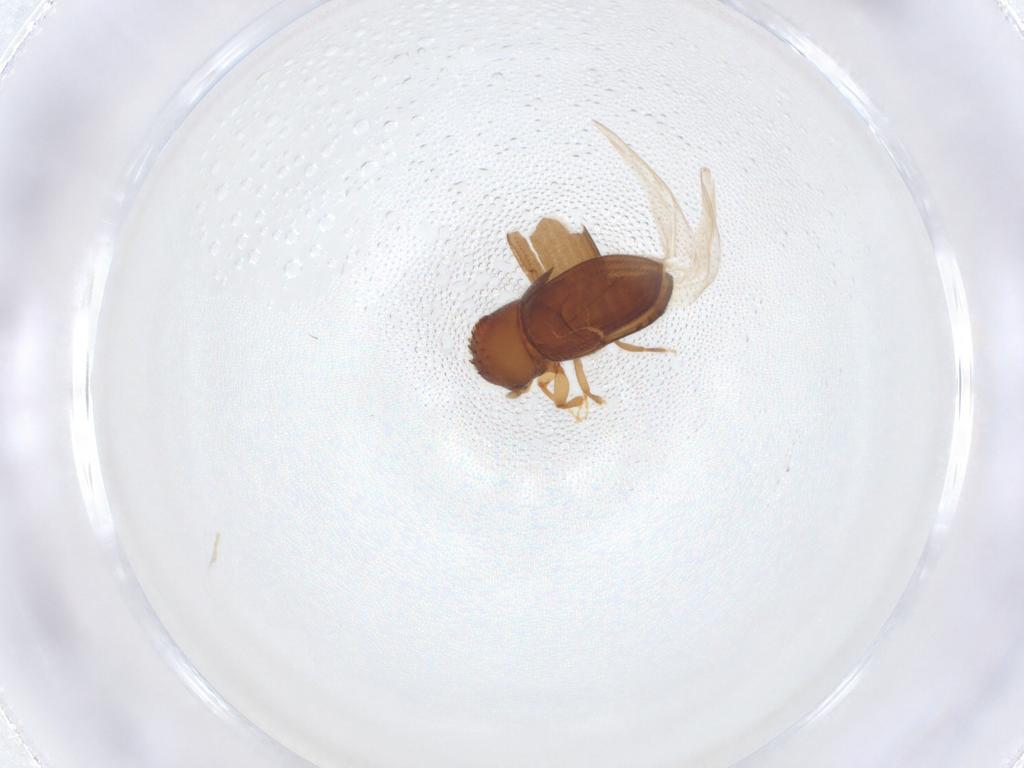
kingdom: Animalia
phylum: Arthropoda
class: Insecta
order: Coleoptera
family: Curculionidae
